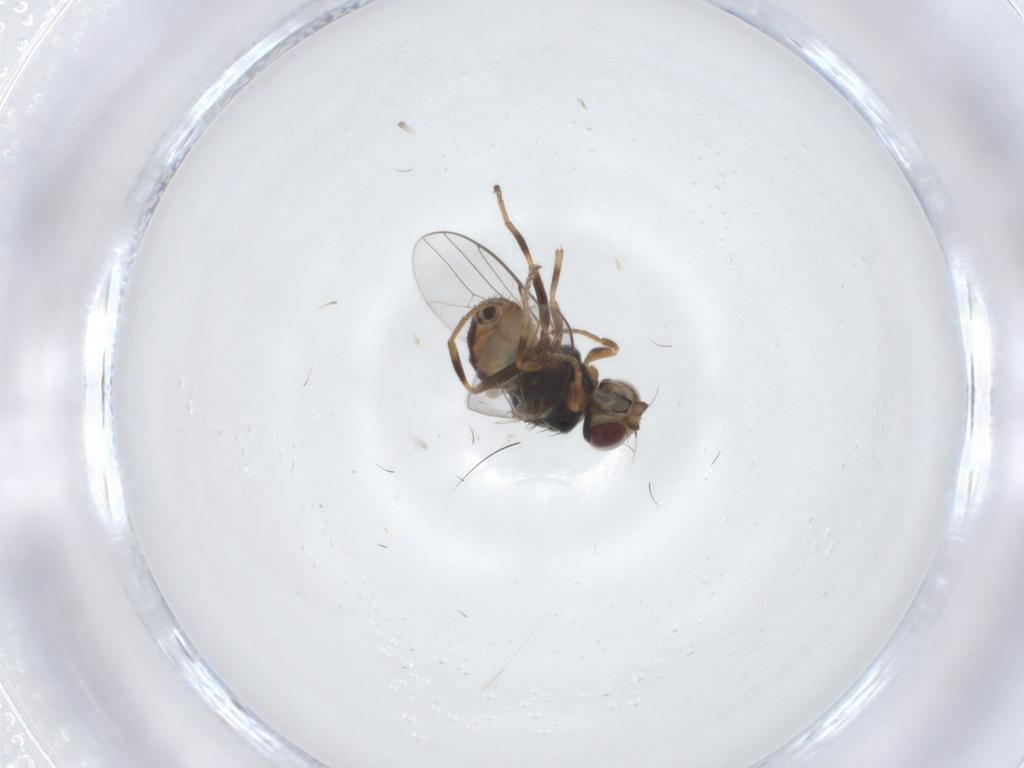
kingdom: Animalia
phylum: Arthropoda
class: Insecta
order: Diptera
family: Chloropidae
